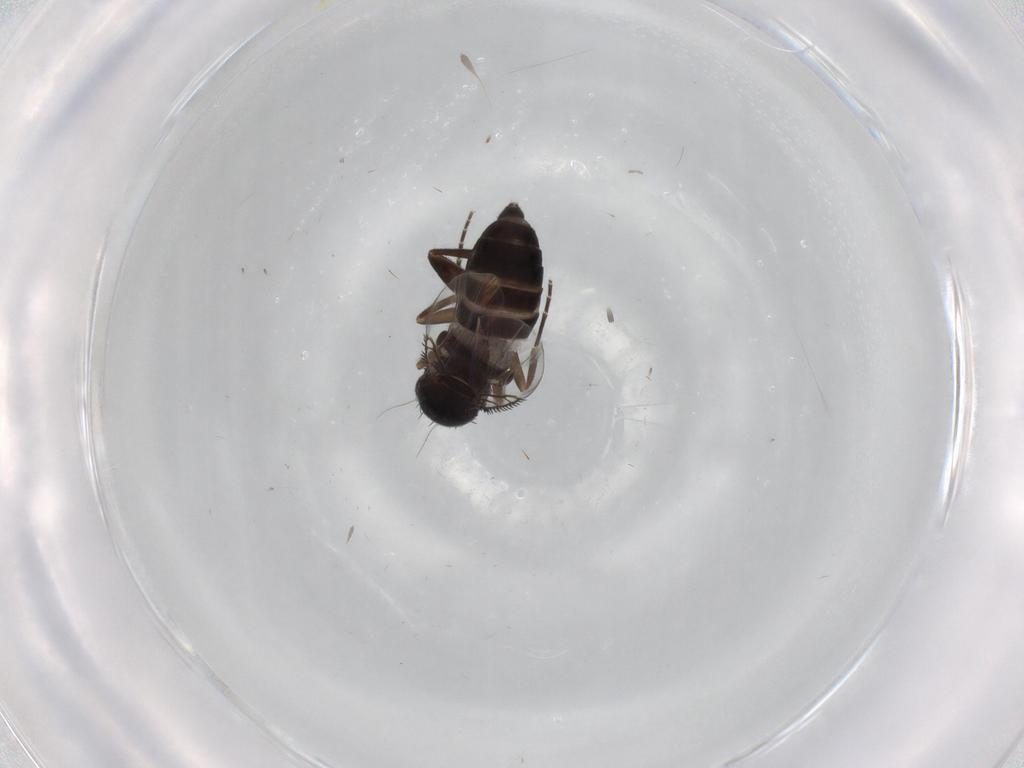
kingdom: Animalia
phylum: Arthropoda
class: Insecta
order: Diptera
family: Phoridae
